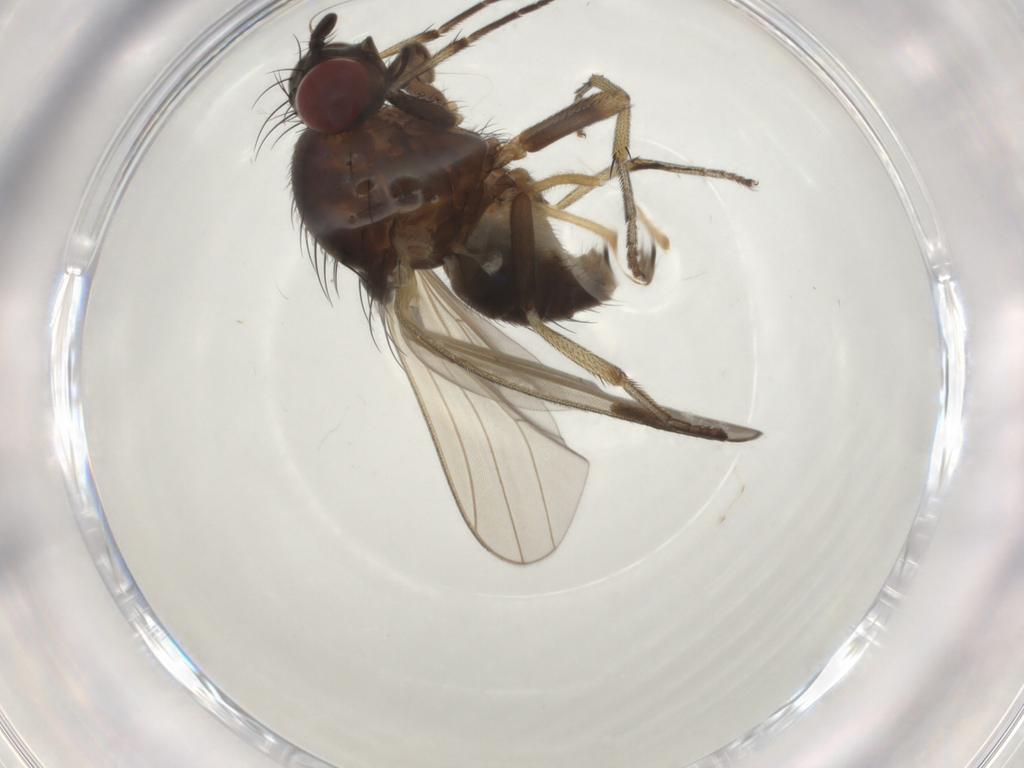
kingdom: Animalia
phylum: Arthropoda
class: Insecta
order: Diptera
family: Lauxaniidae
